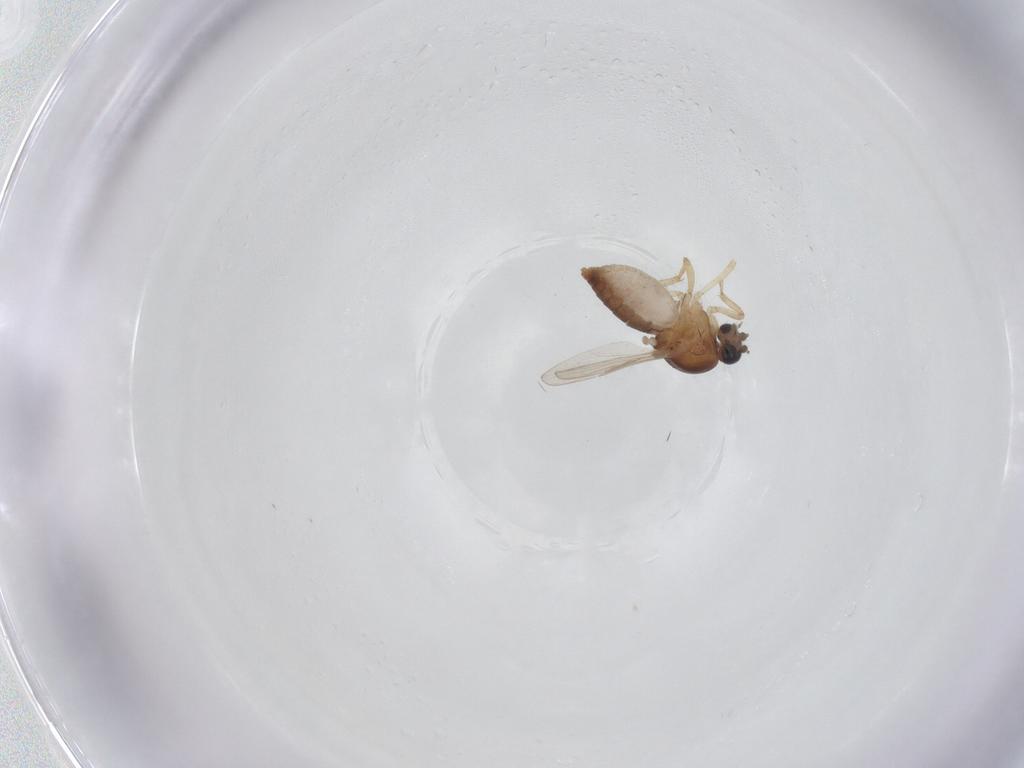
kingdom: Animalia
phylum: Arthropoda
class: Insecta
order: Diptera
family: Ceratopogonidae
